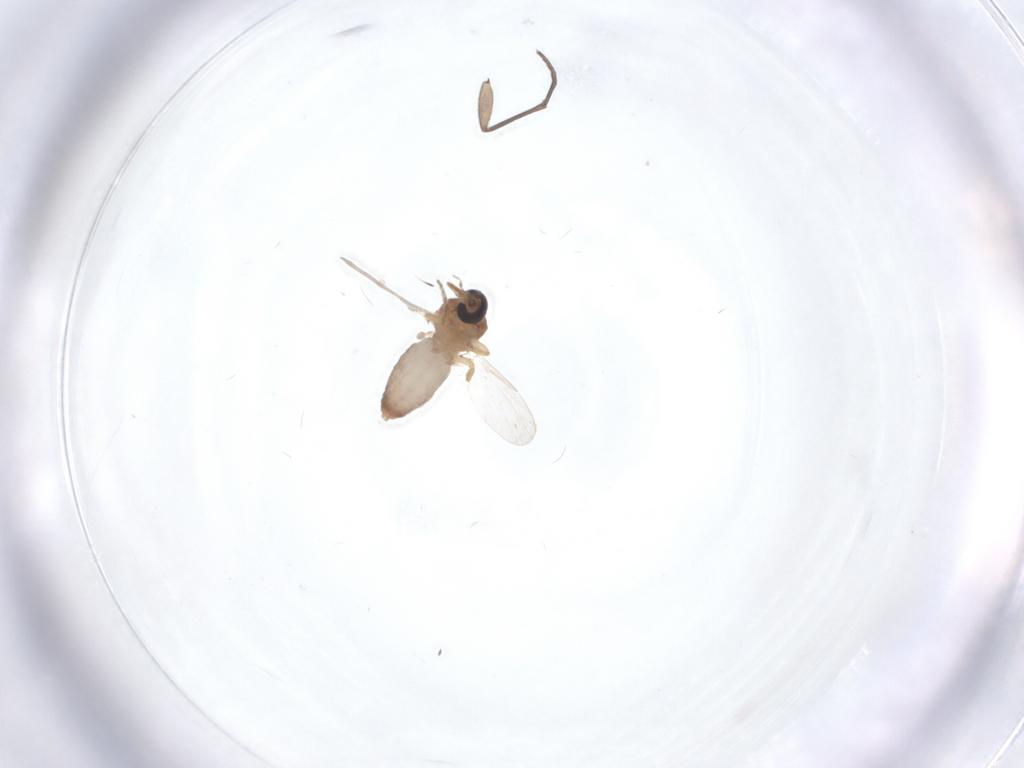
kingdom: Animalia
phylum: Arthropoda
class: Insecta
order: Diptera
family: Ceratopogonidae
